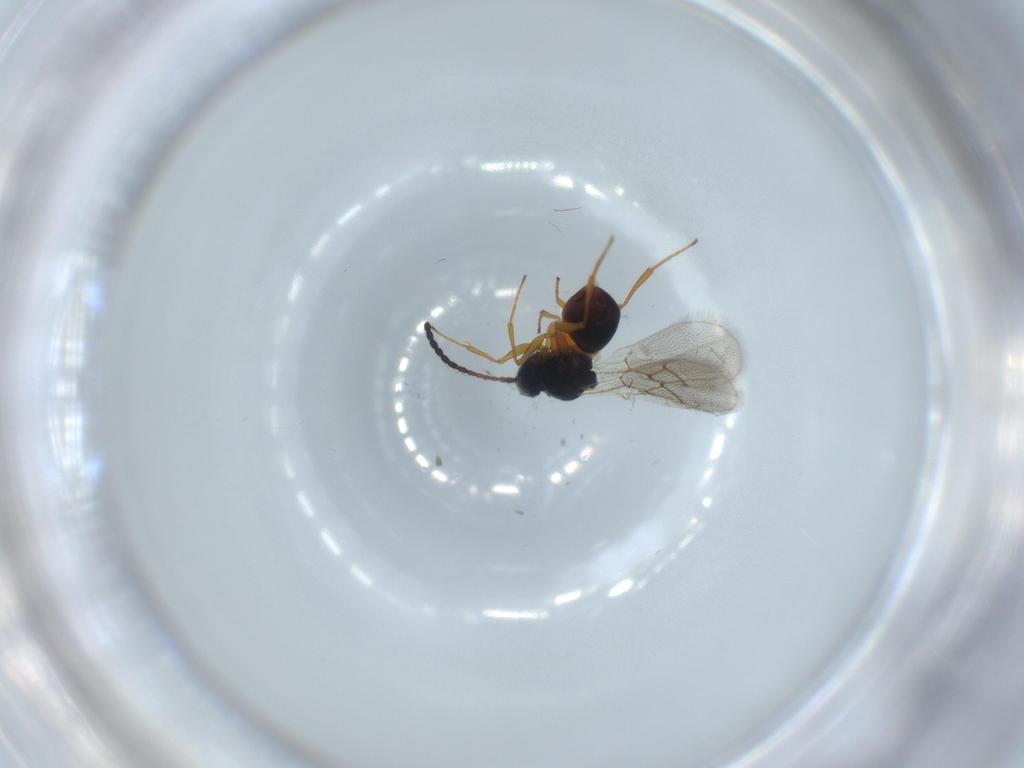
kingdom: Animalia
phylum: Arthropoda
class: Insecta
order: Hymenoptera
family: Figitidae
